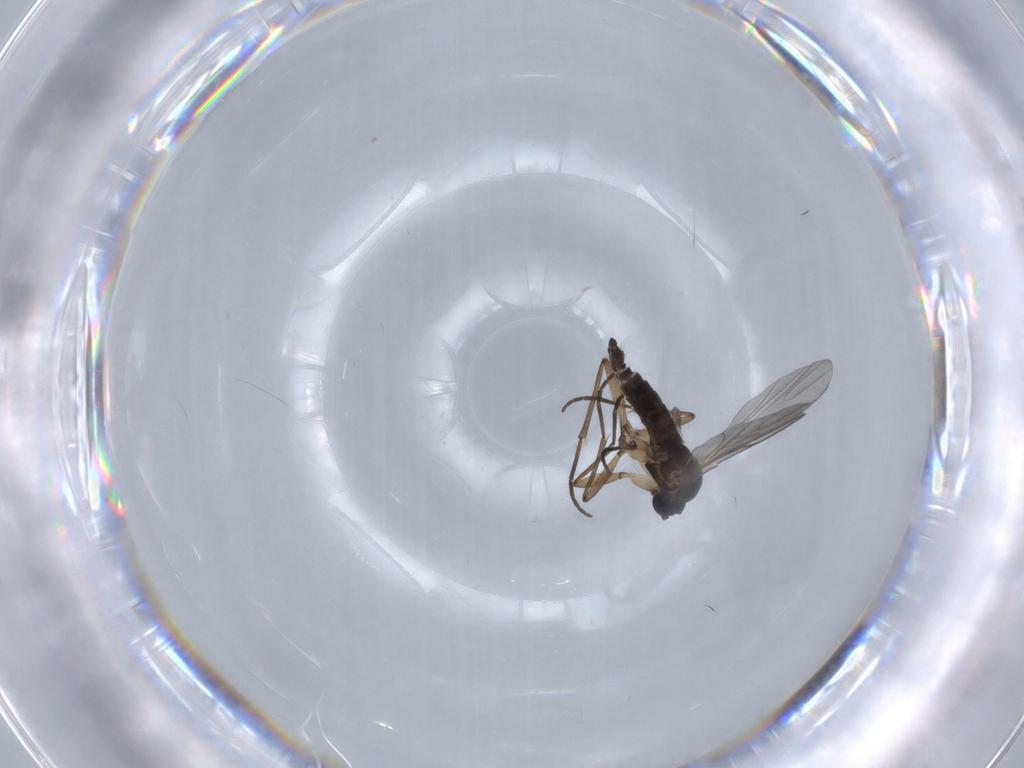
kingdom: Animalia
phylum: Arthropoda
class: Insecta
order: Diptera
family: Sciaridae
